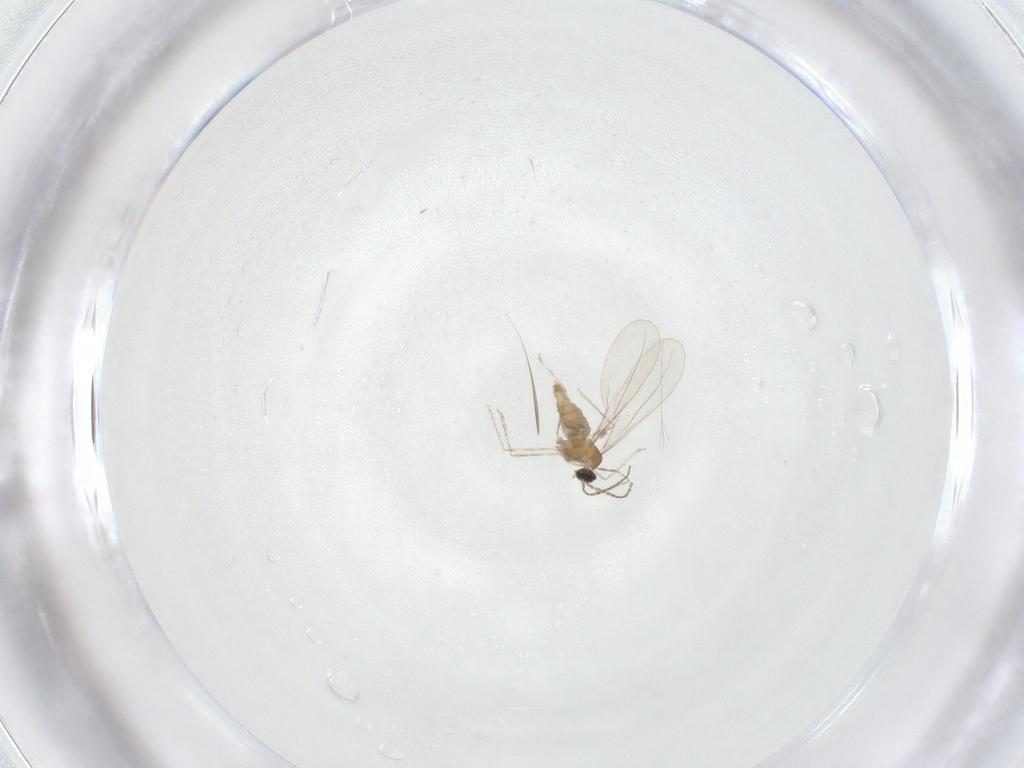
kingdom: Animalia
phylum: Arthropoda
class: Insecta
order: Diptera
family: Cecidomyiidae
